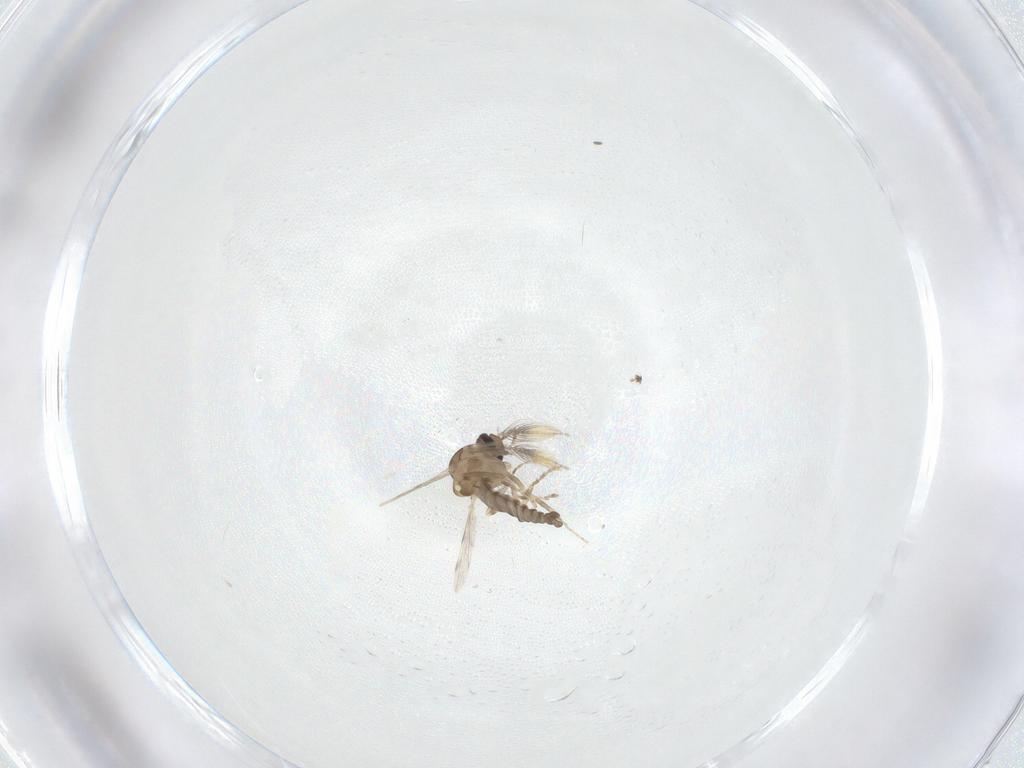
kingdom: Animalia
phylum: Arthropoda
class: Insecta
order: Diptera
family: Ceratopogonidae
